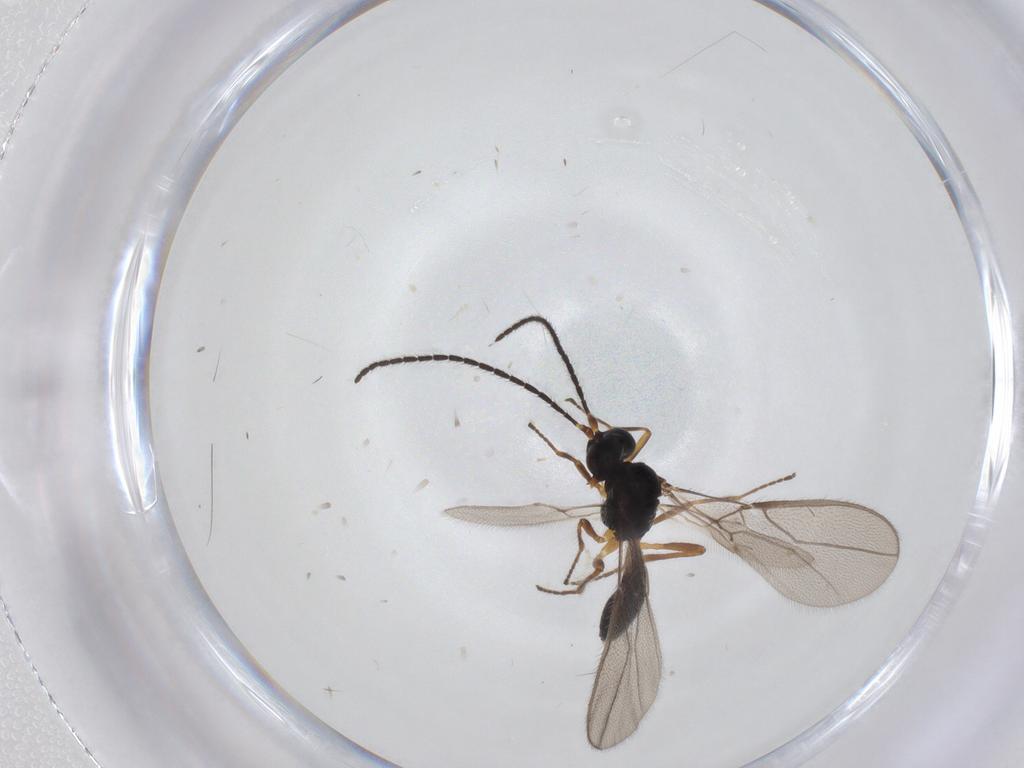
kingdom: Animalia
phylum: Arthropoda
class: Insecta
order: Hymenoptera
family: Braconidae
